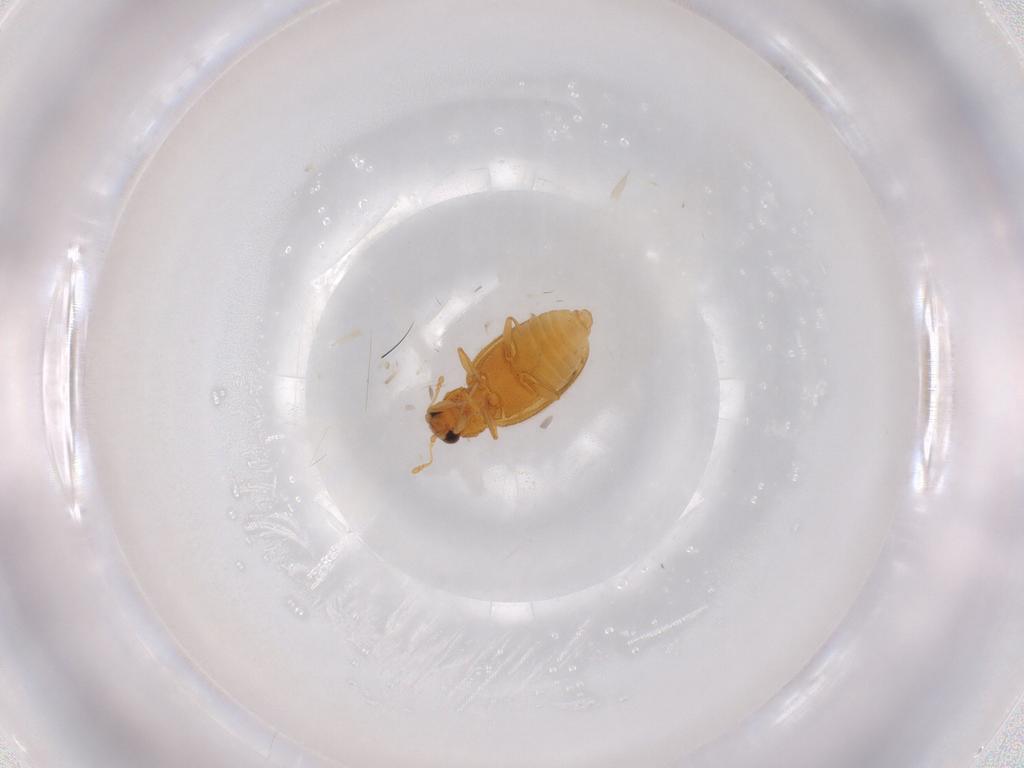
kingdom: Animalia
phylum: Arthropoda
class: Insecta
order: Coleoptera
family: Latridiidae
